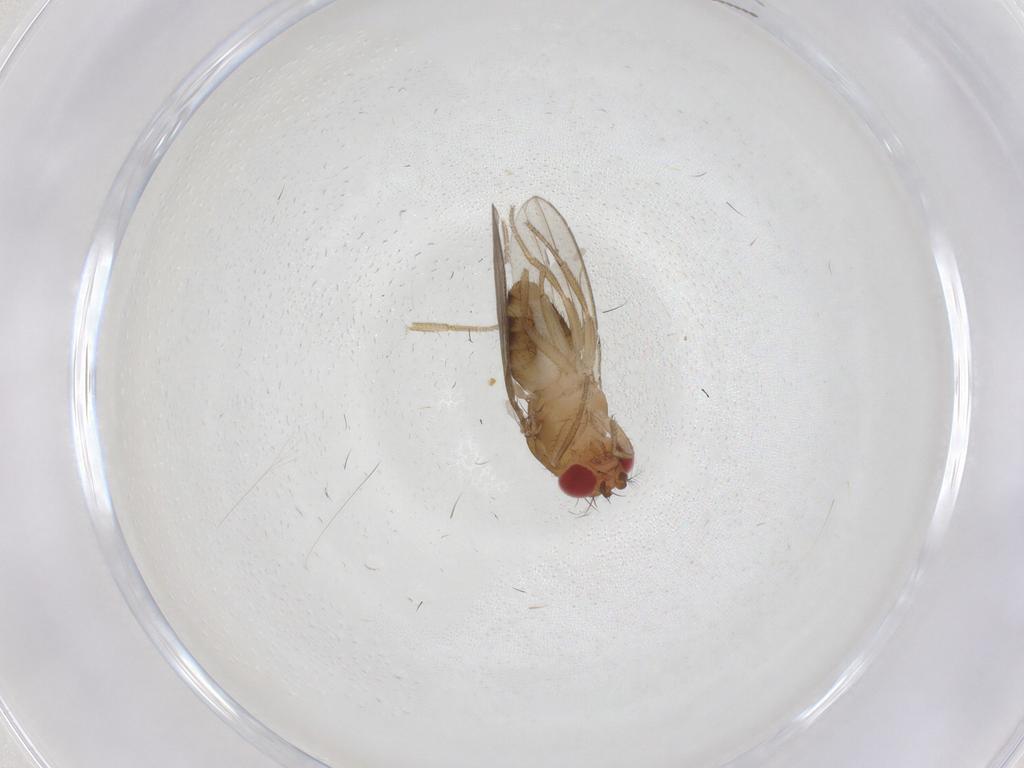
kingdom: Animalia
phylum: Arthropoda
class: Insecta
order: Diptera
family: Drosophilidae
